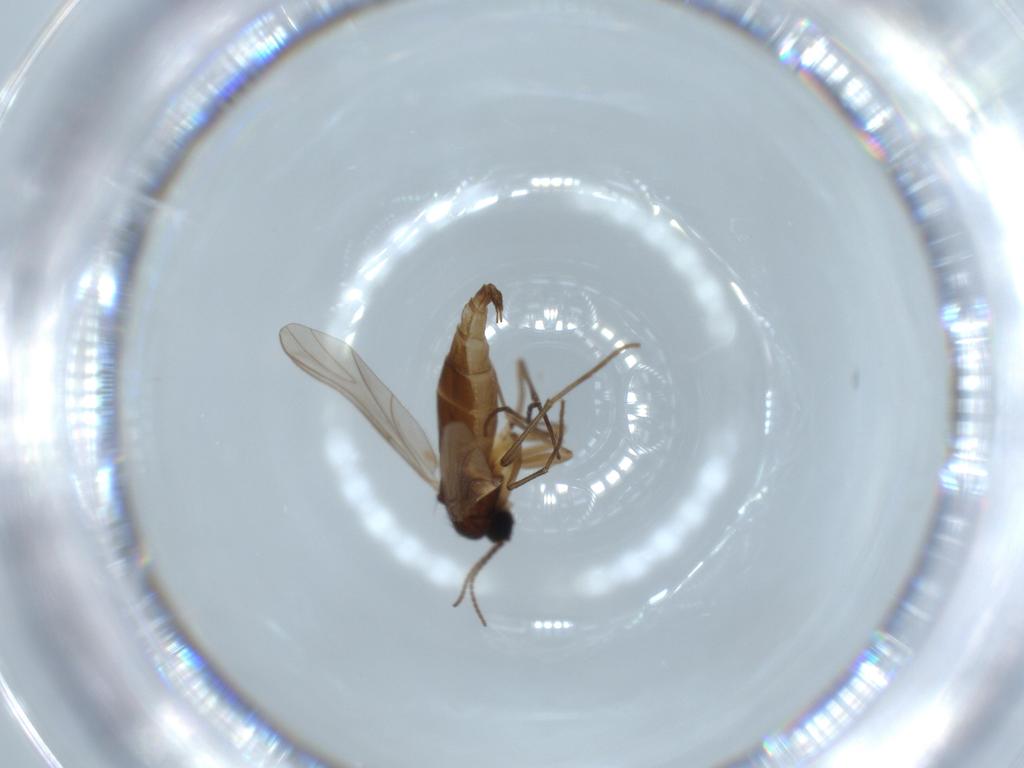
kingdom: Animalia
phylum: Arthropoda
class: Insecta
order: Diptera
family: Sciaridae
